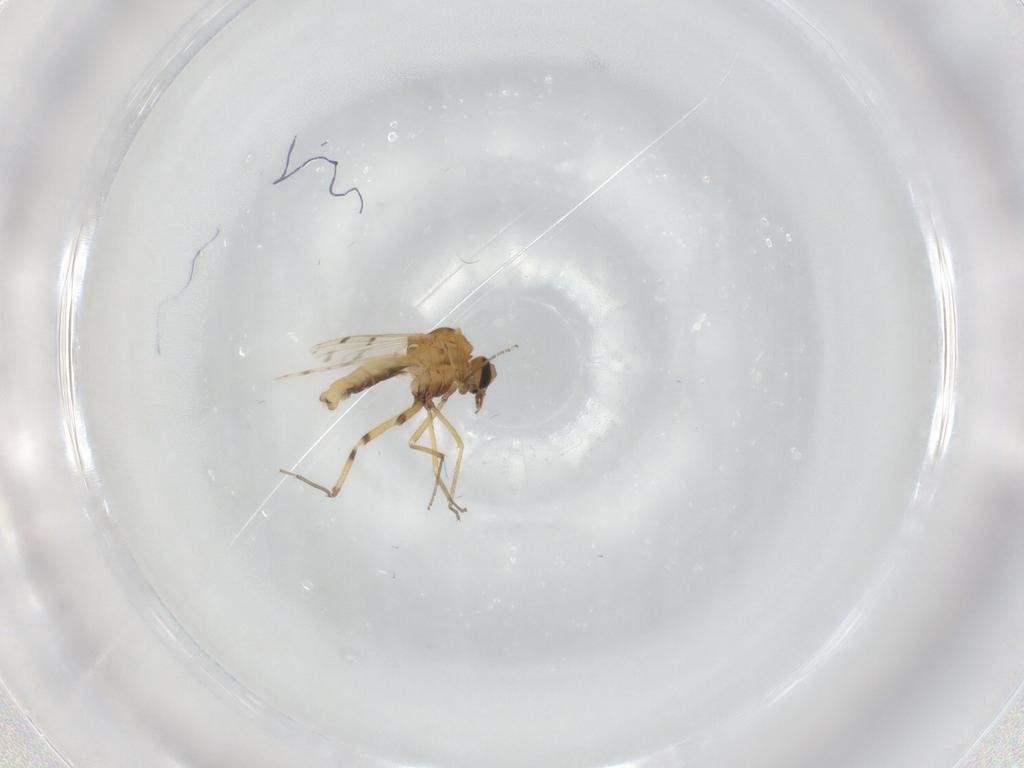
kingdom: Animalia
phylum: Arthropoda
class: Insecta
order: Diptera
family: Ceratopogonidae
